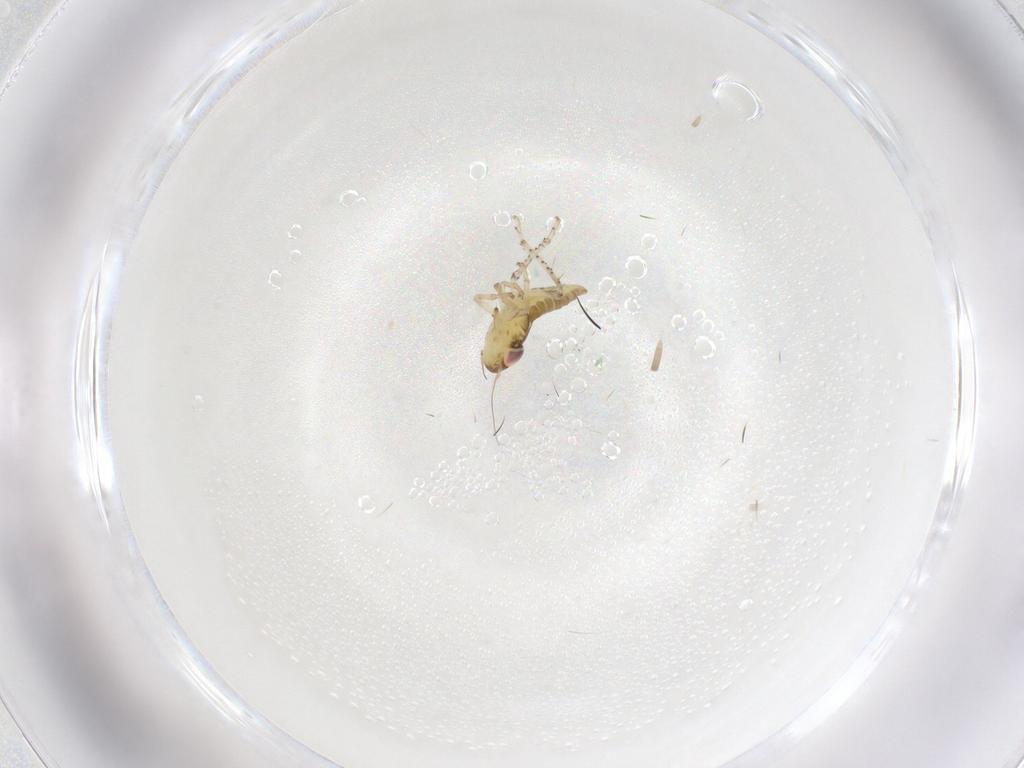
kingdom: Animalia
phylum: Arthropoda
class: Insecta
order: Hemiptera
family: Cicadellidae
